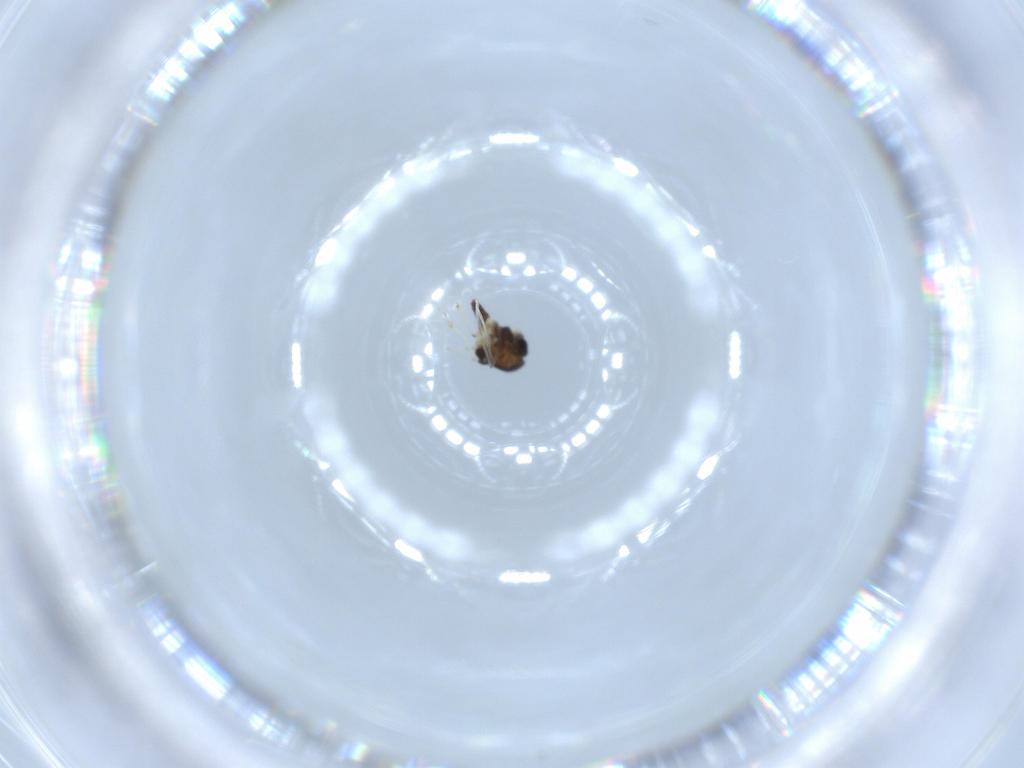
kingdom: Animalia
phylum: Arthropoda
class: Insecta
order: Diptera
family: Chironomidae
